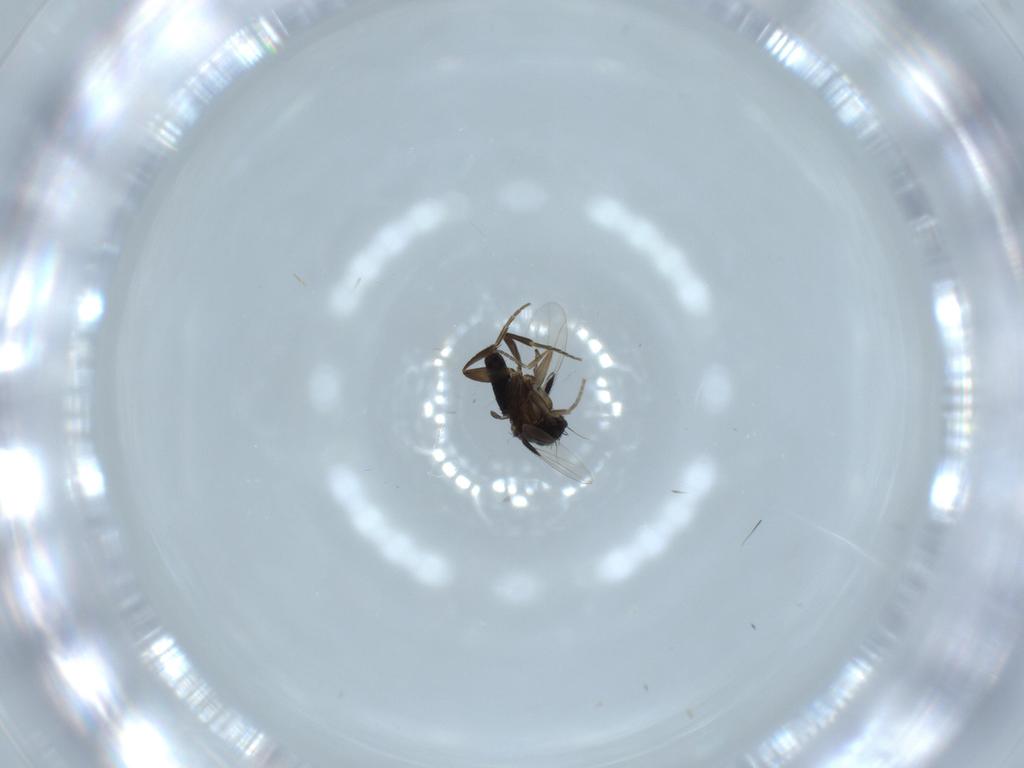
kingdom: Animalia
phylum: Arthropoda
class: Insecta
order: Diptera
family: Phoridae
